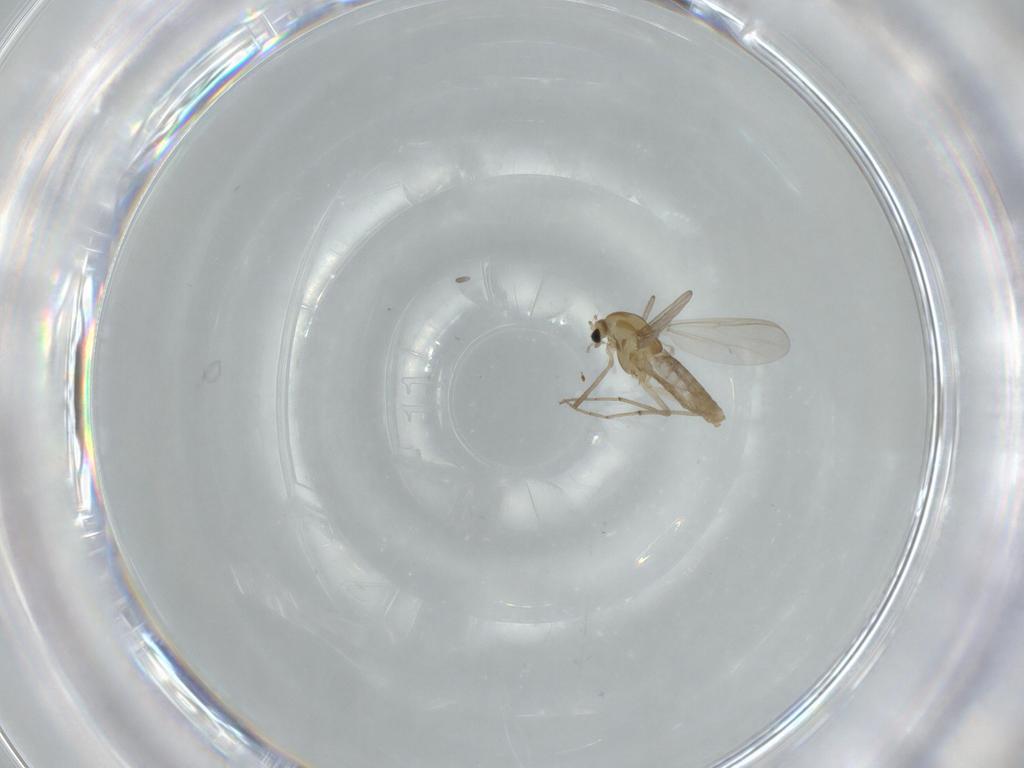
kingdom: Animalia
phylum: Arthropoda
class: Insecta
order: Diptera
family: Chironomidae
